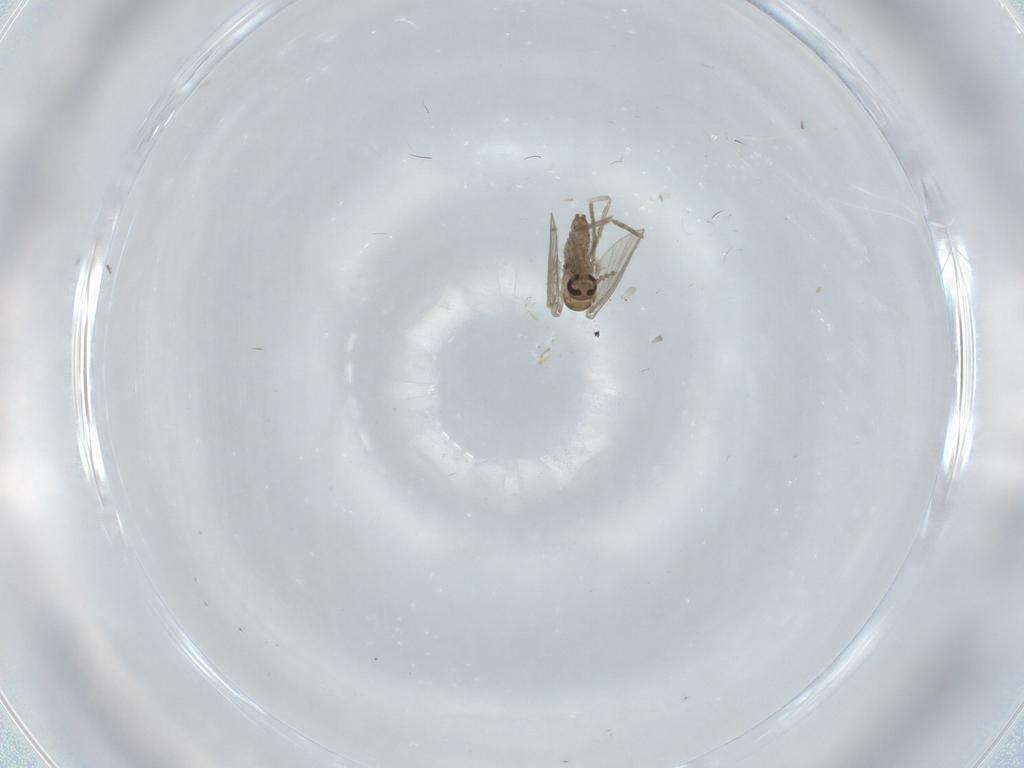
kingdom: Animalia
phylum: Arthropoda
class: Insecta
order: Diptera
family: Psychodidae
